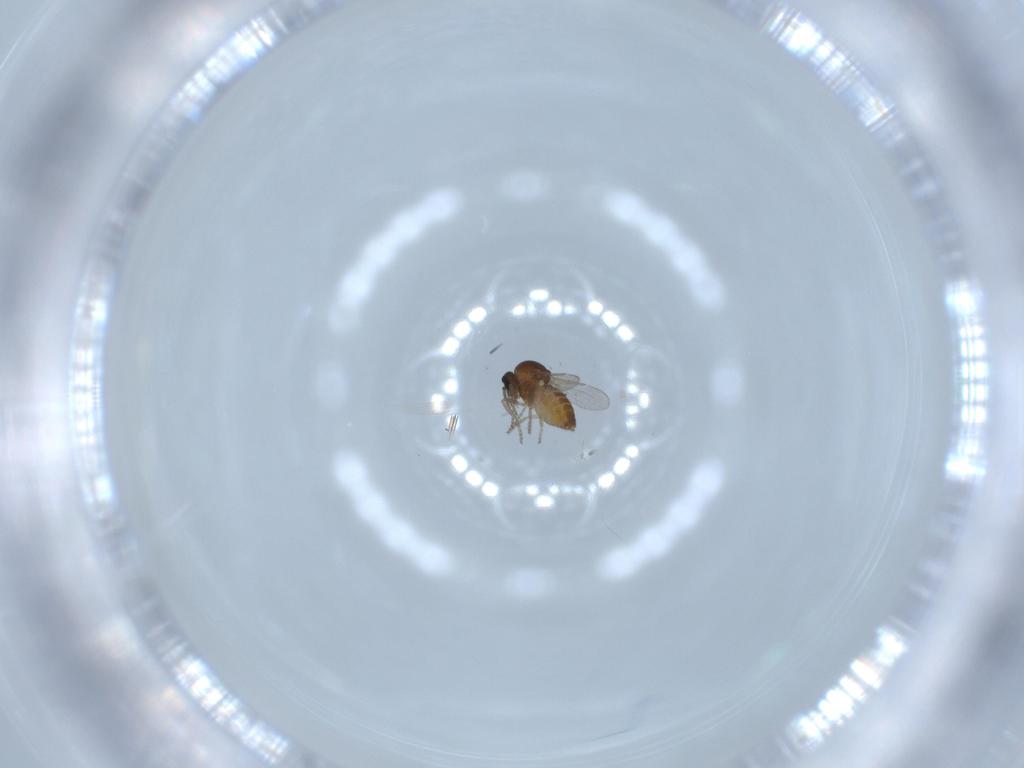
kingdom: Animalia
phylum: Arthropoda
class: Insecta
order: Diptera
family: Ceratopogonidae
